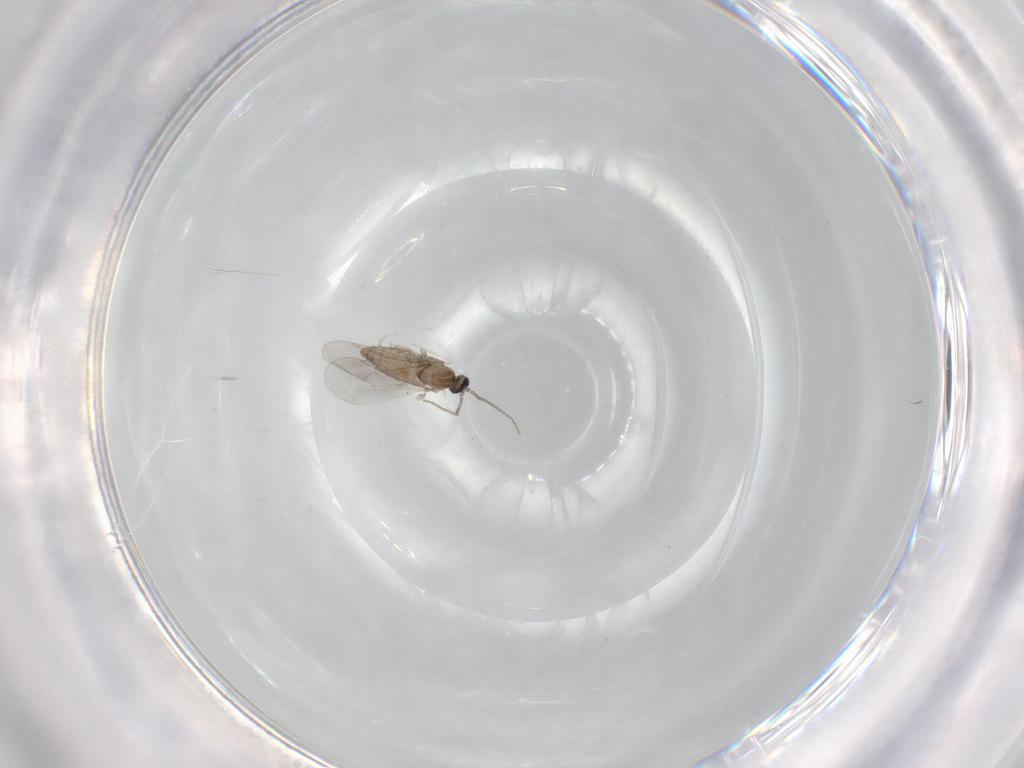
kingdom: Animalia
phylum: Arthropoda
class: Insecta
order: Diptera
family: Cecidomyiidae
